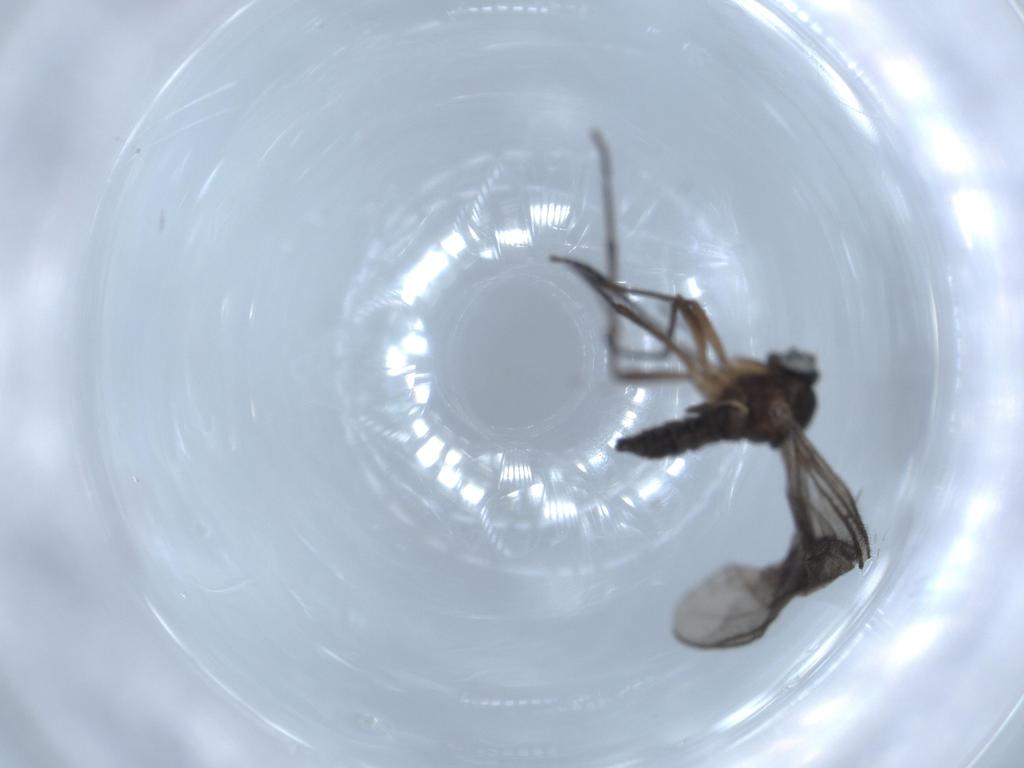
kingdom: Animalia
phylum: Arthropoda
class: Insecta
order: Diptera
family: Sciaridae
